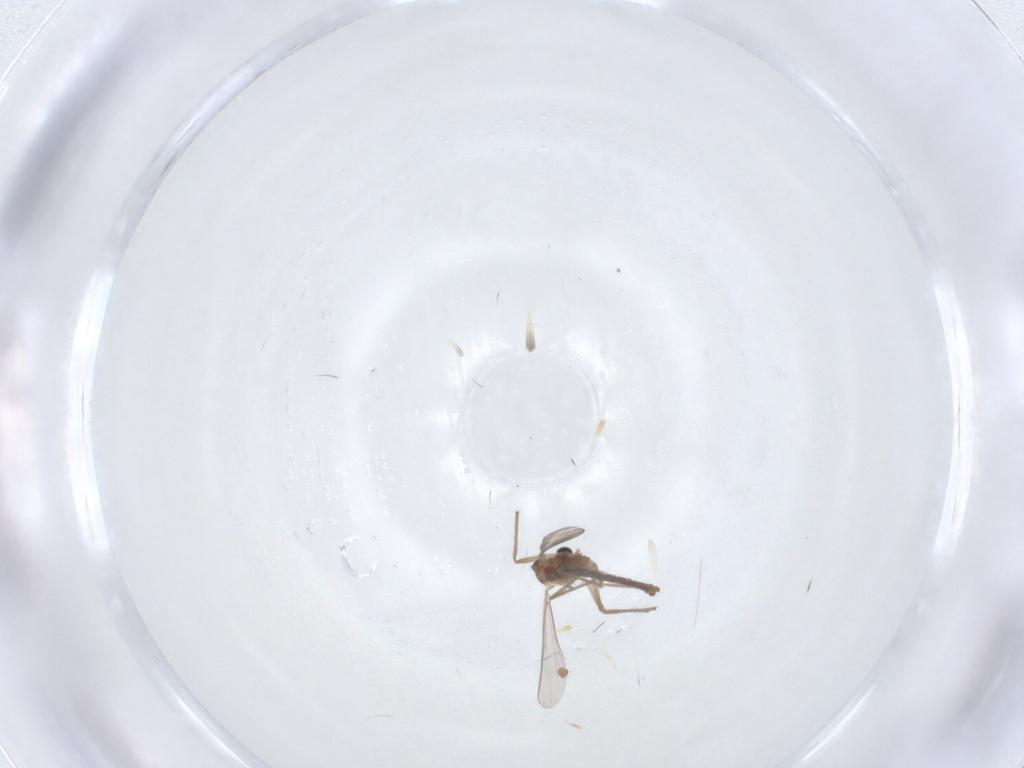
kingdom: Animalia
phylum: Arthropoda
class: Insecta
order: Diptera
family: Chironomidae
